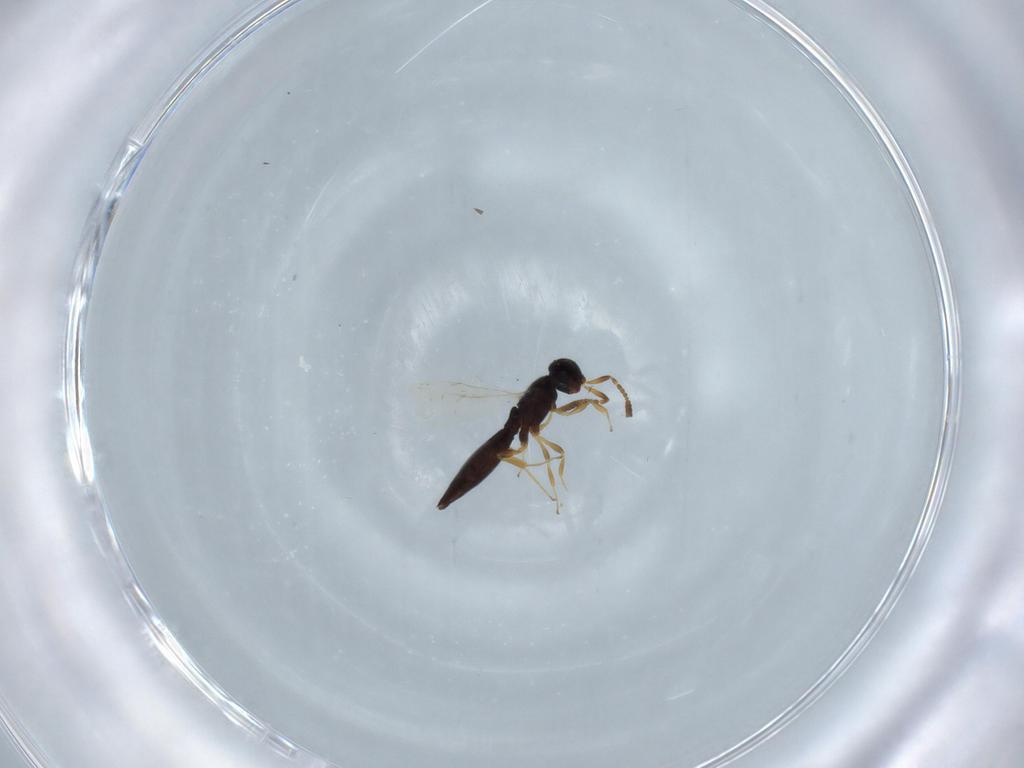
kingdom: Animalia
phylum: Arthropoda
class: Insecta
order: Hymenoptera
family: Scelionidae
